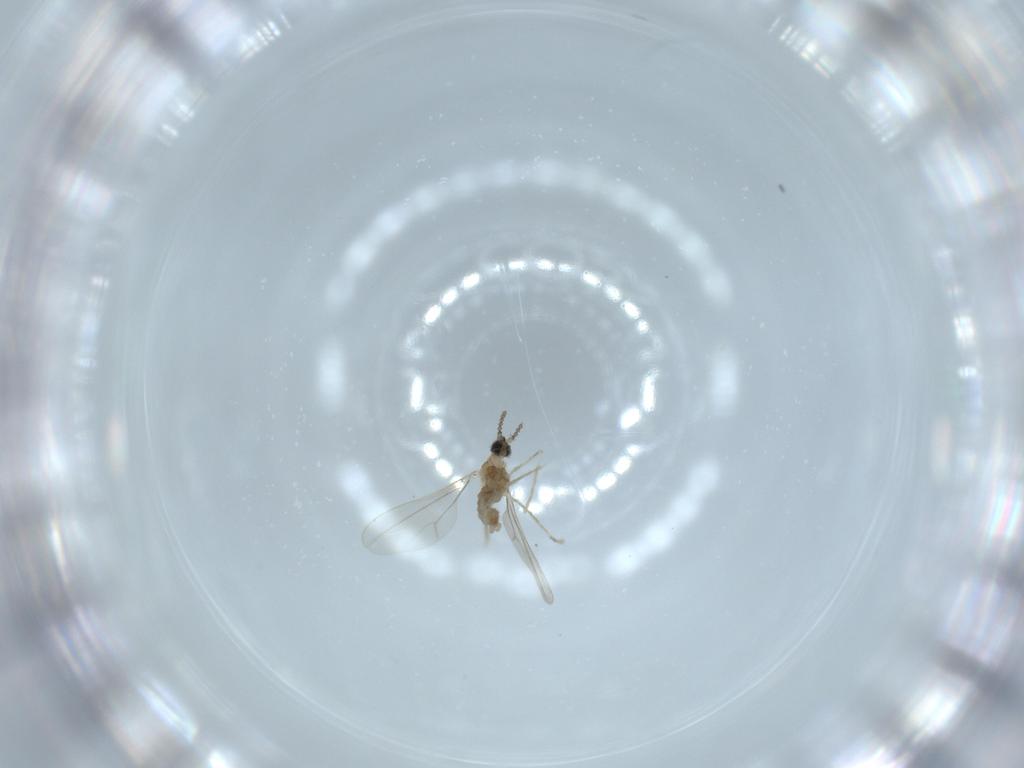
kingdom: Animalia
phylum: Arthropoda
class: Insecta
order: Diptera
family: Cecidomyiidae
